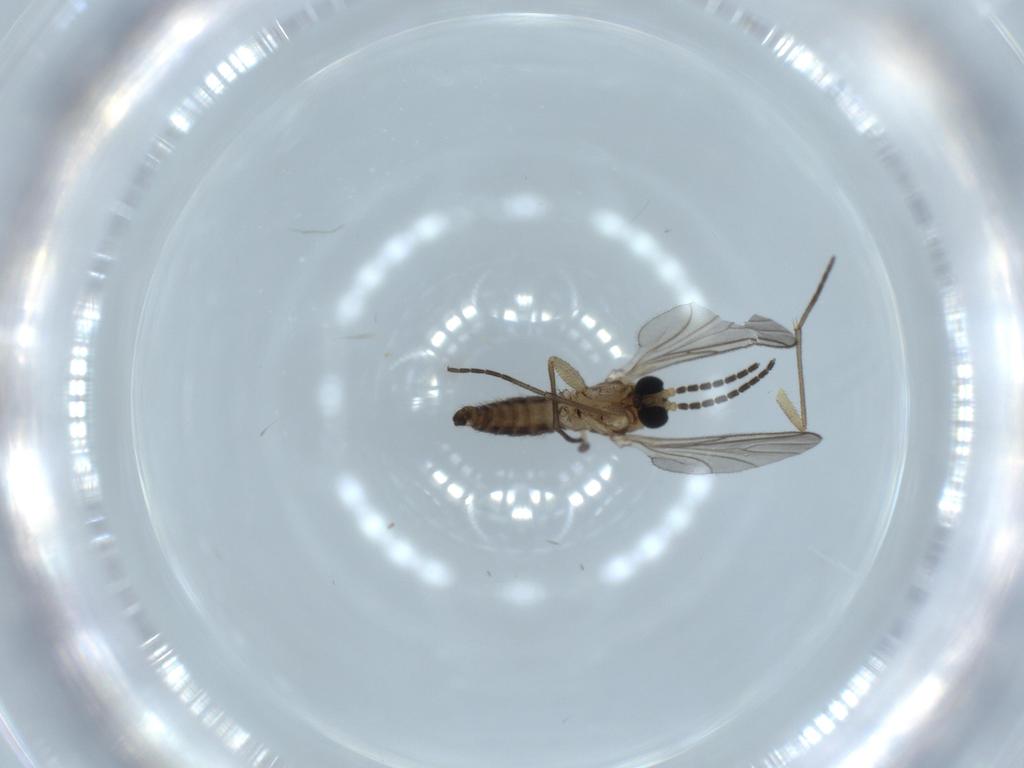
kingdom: Animalia
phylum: Arthropoda
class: Insecta
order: Diptera
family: Sciaridae
